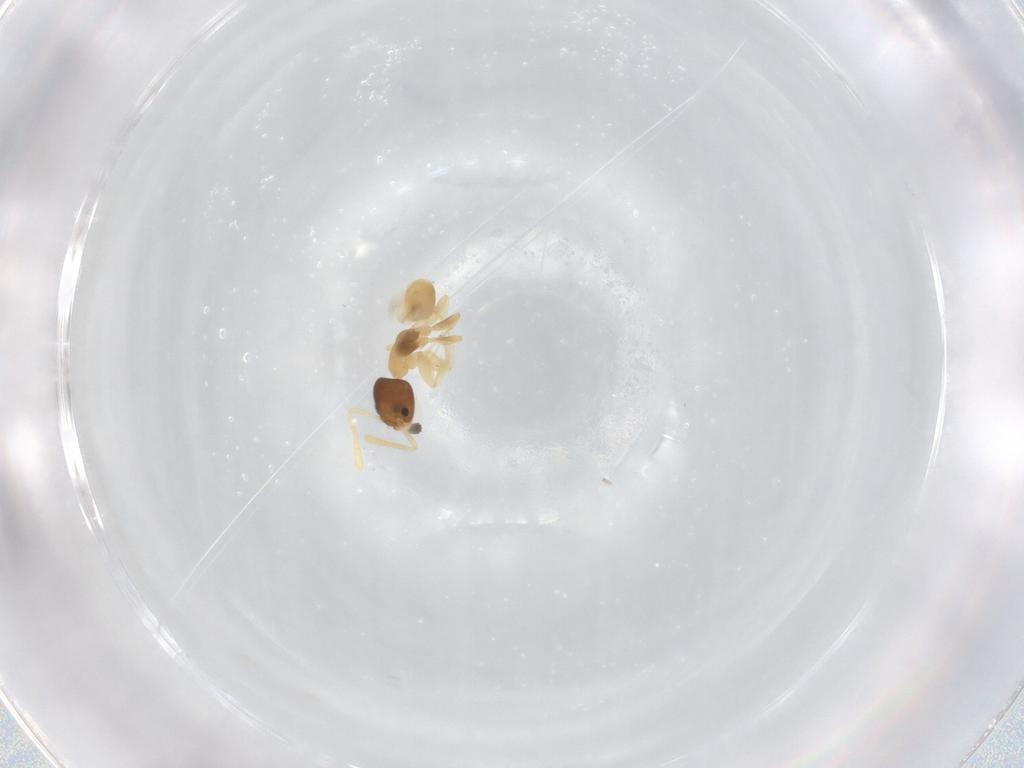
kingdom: Animalia
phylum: Arthropoda
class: Insecta
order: Hymenoptera
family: Formicidae
